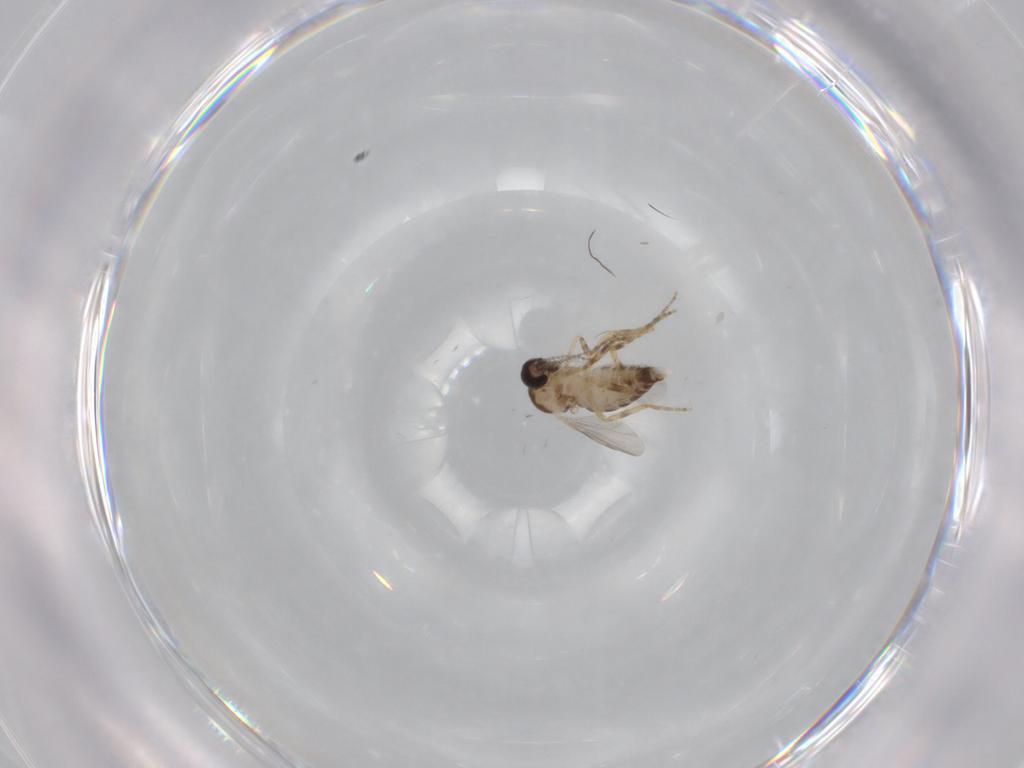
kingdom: Animalia
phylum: Arthropoda
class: Insecta
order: Diptera
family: Ceratopogonidae
